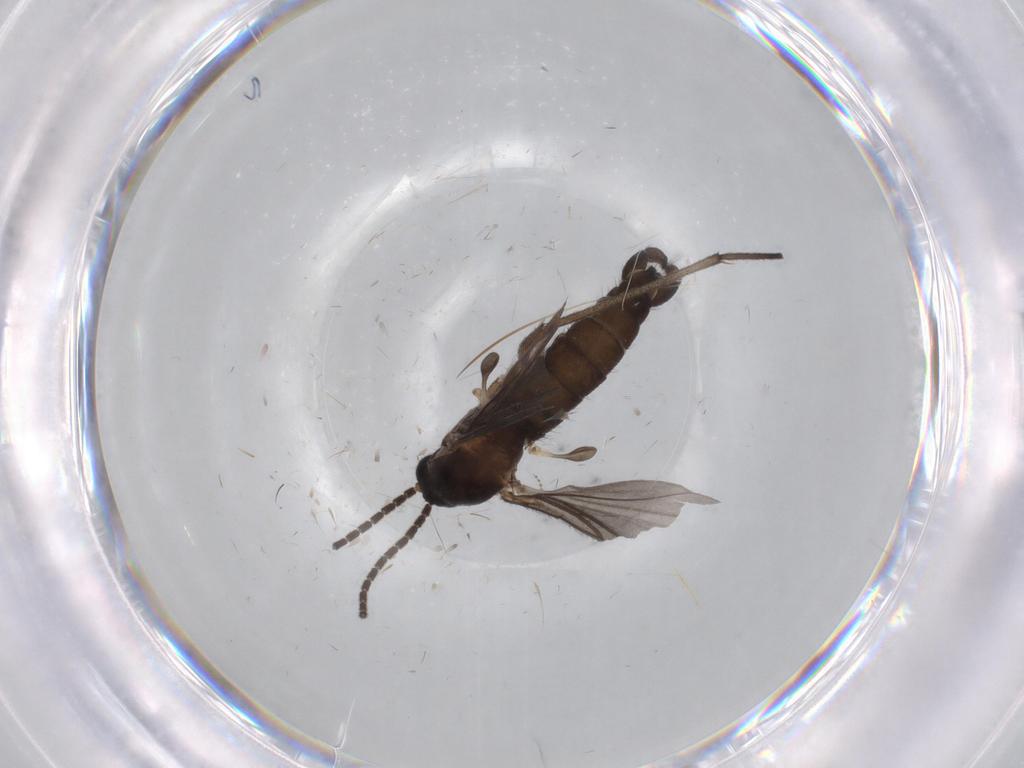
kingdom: Animalia
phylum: Arthropoda
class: Insecta
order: Diptera
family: Sciaridae
